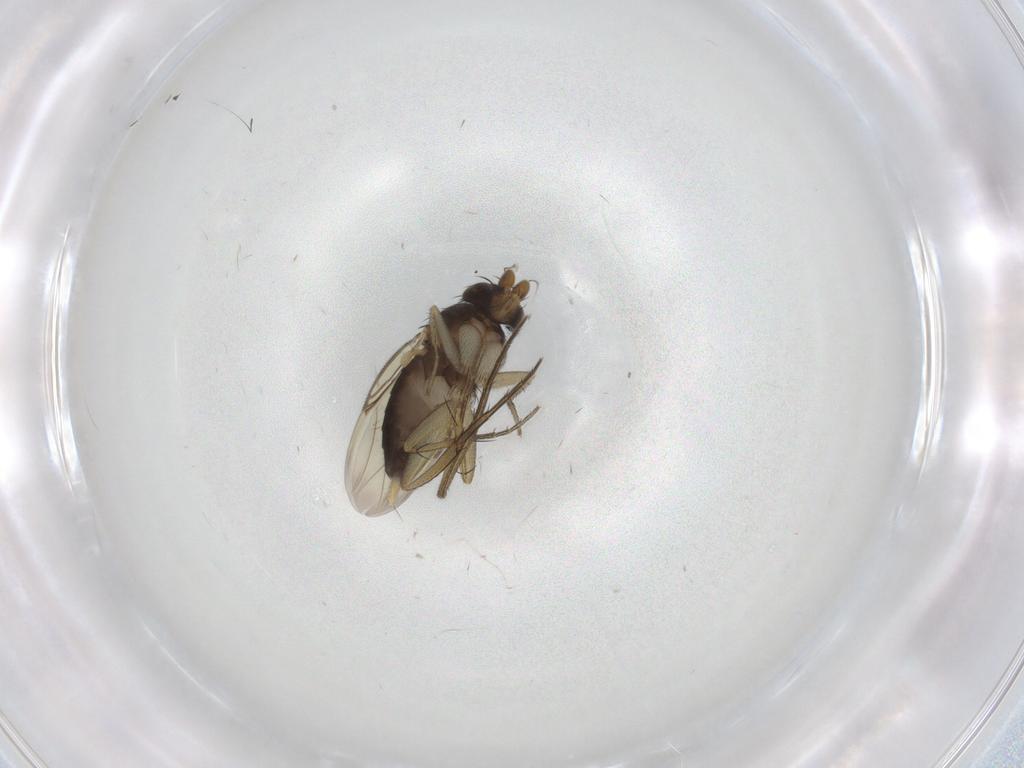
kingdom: Animalia
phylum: Arthropoda
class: Insecta
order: Diptera
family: Phoridae
